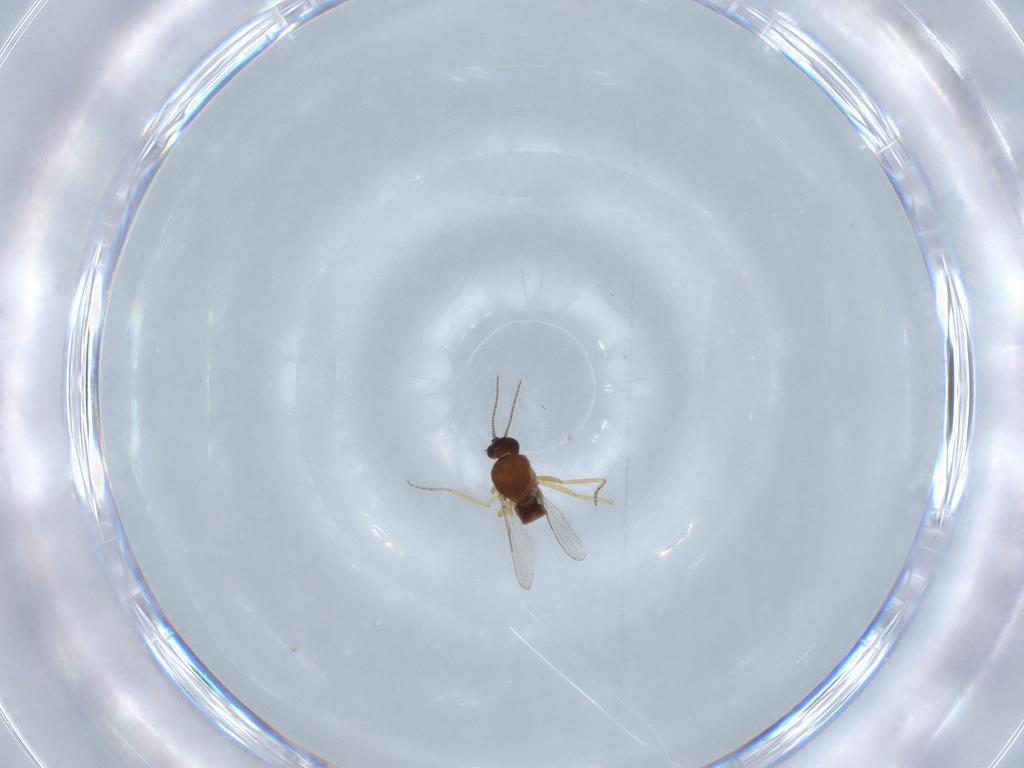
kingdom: Animalia
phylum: Arthropoda
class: Insecta
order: Diptera
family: Ceratopogonidae
